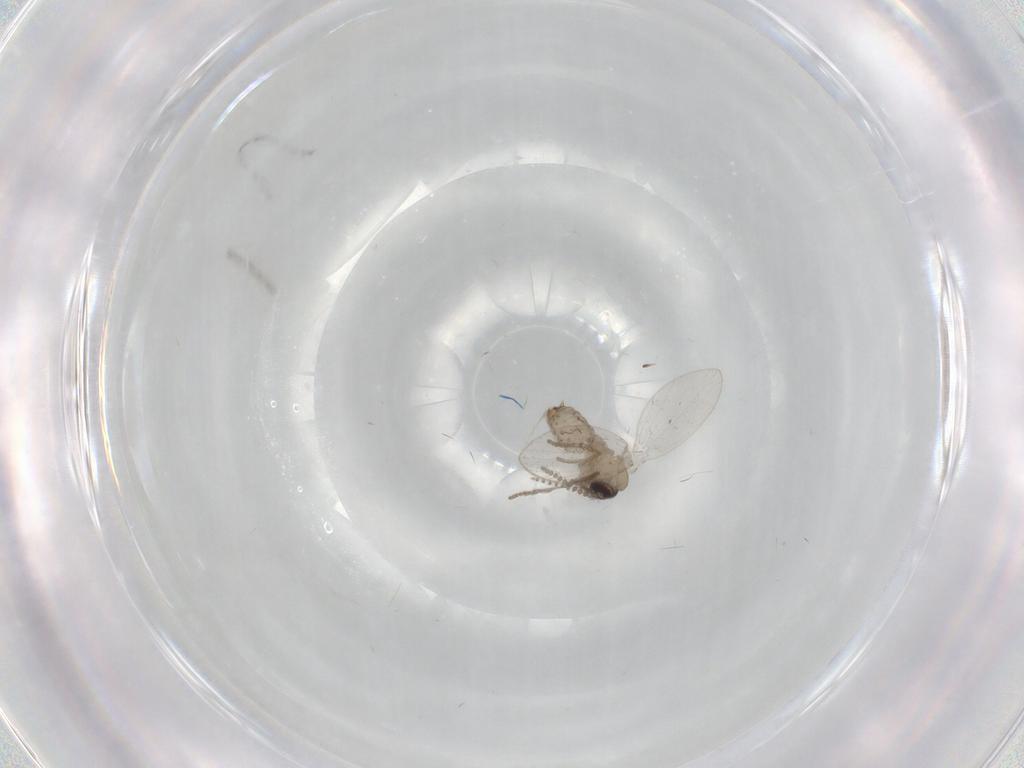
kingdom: Animalia
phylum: Arthropoda
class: Insecta
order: Diptera
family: Psychodidae
